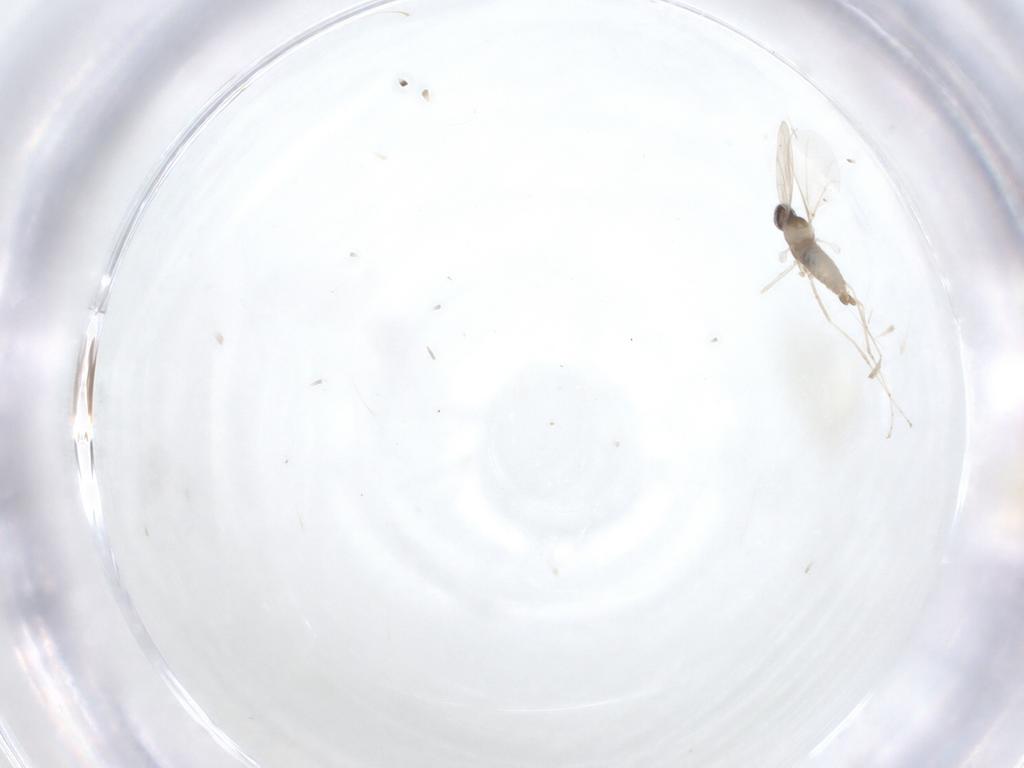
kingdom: Animalia
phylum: Arthropoda
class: Insecta
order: Diptera
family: Cecidomyiidae
